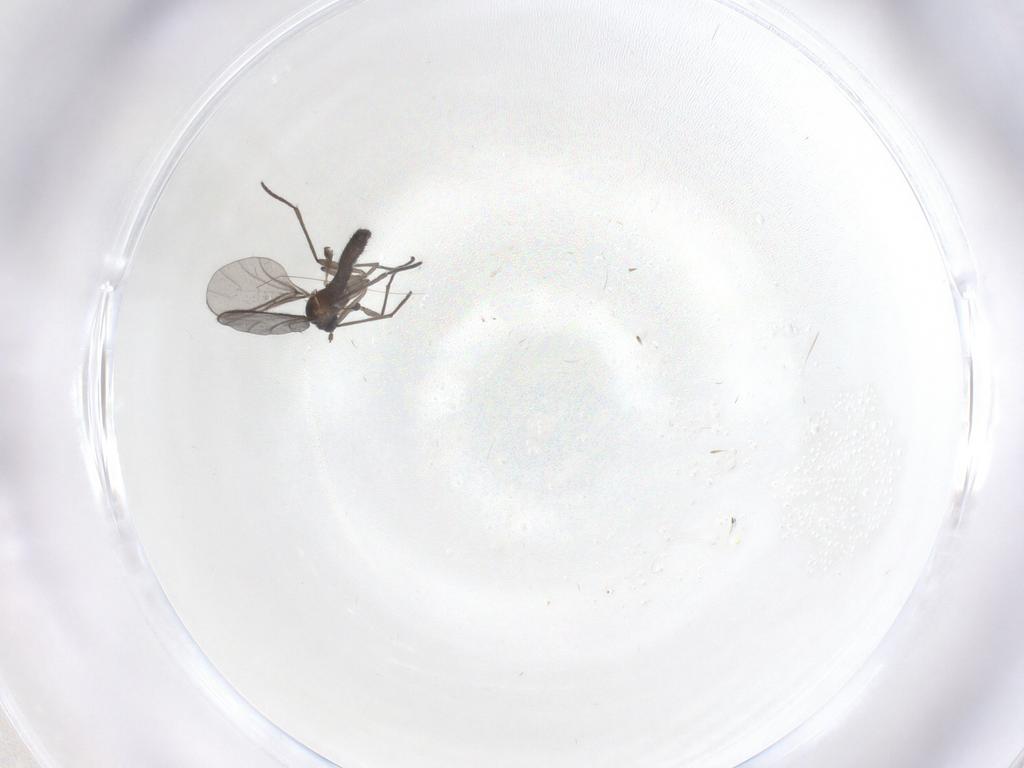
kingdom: Animalia
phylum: Arthropoda
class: Insecta
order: Diptera
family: Sciaridae
